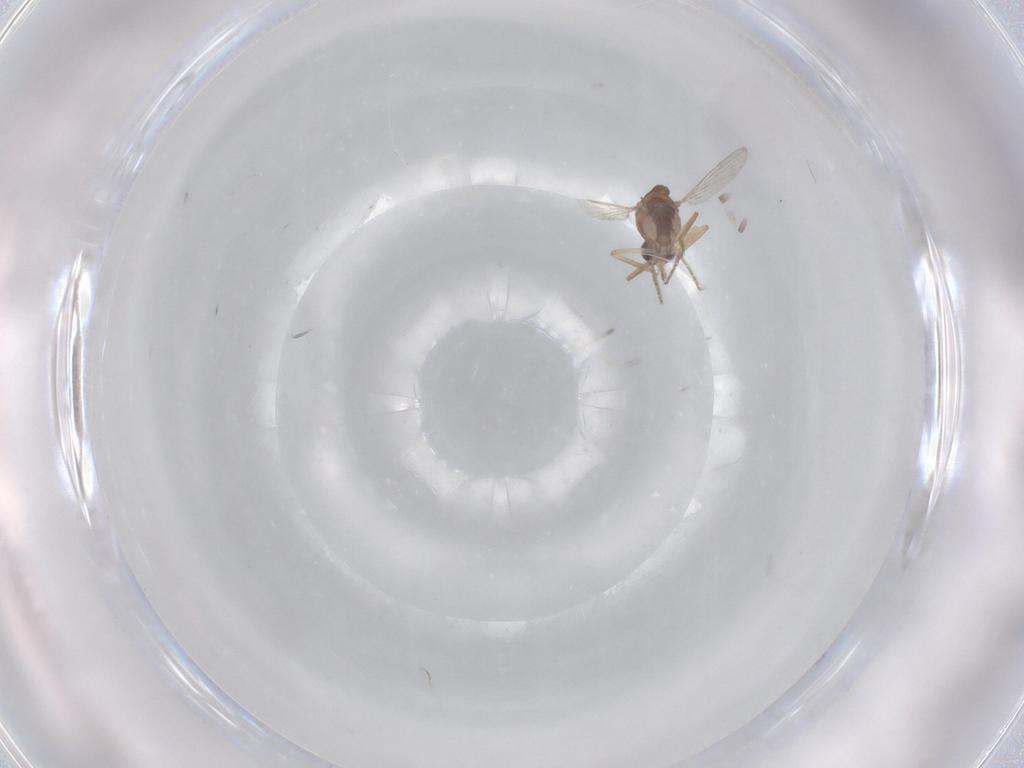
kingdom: Animalia
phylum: Arthropoda
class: Insecta
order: Diptera
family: Ceratopogonidae
